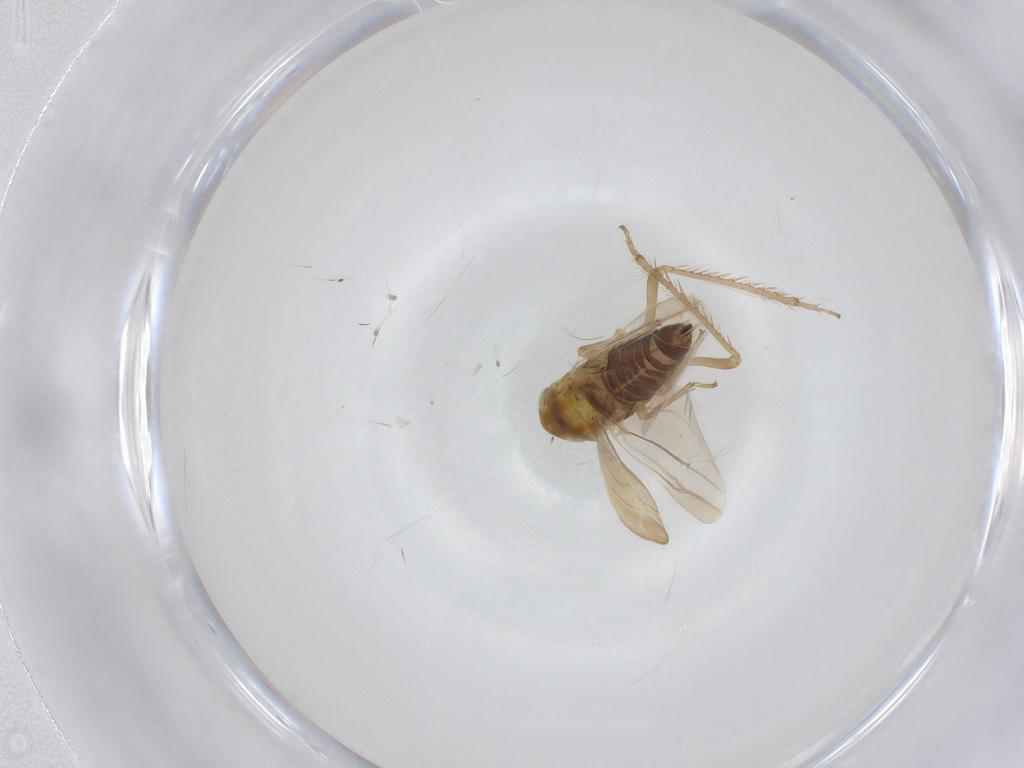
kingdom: Animalia
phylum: Arthropoda
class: Insecta
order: Hemiptera
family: Cicadellidae
